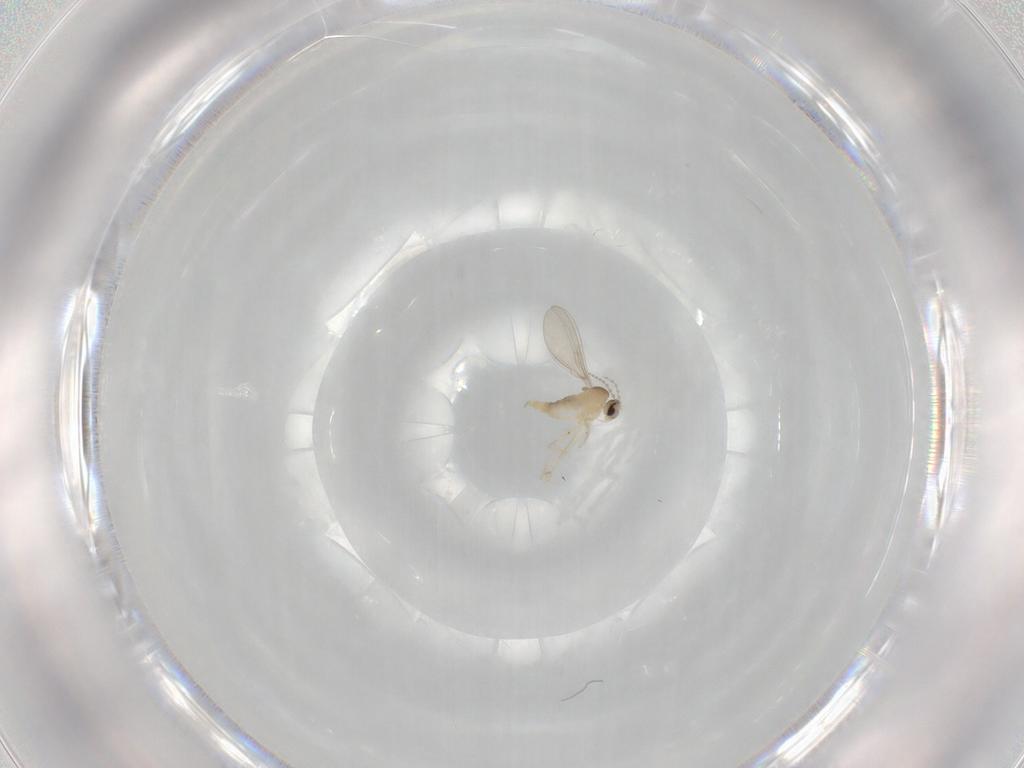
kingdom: Animalia
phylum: Arthropoda
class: Insecta
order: Diptera
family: Cecidomyiidae
